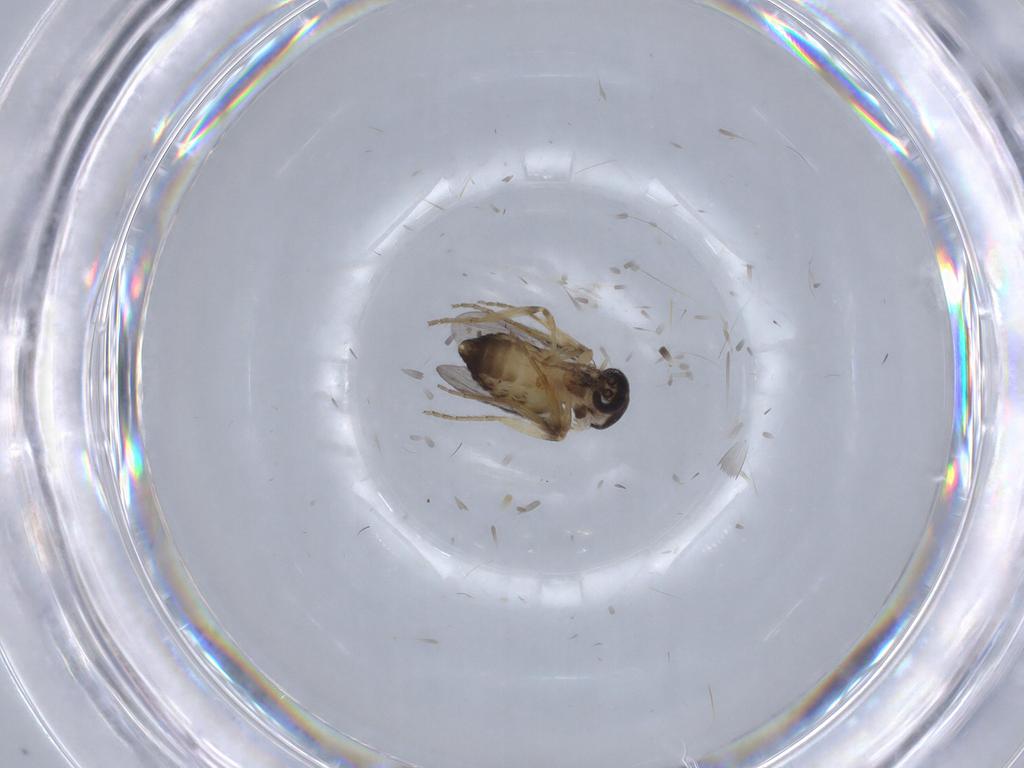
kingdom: Animalia
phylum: Arthropoda
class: Insecta
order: Diptera
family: Ceratopogonidae
